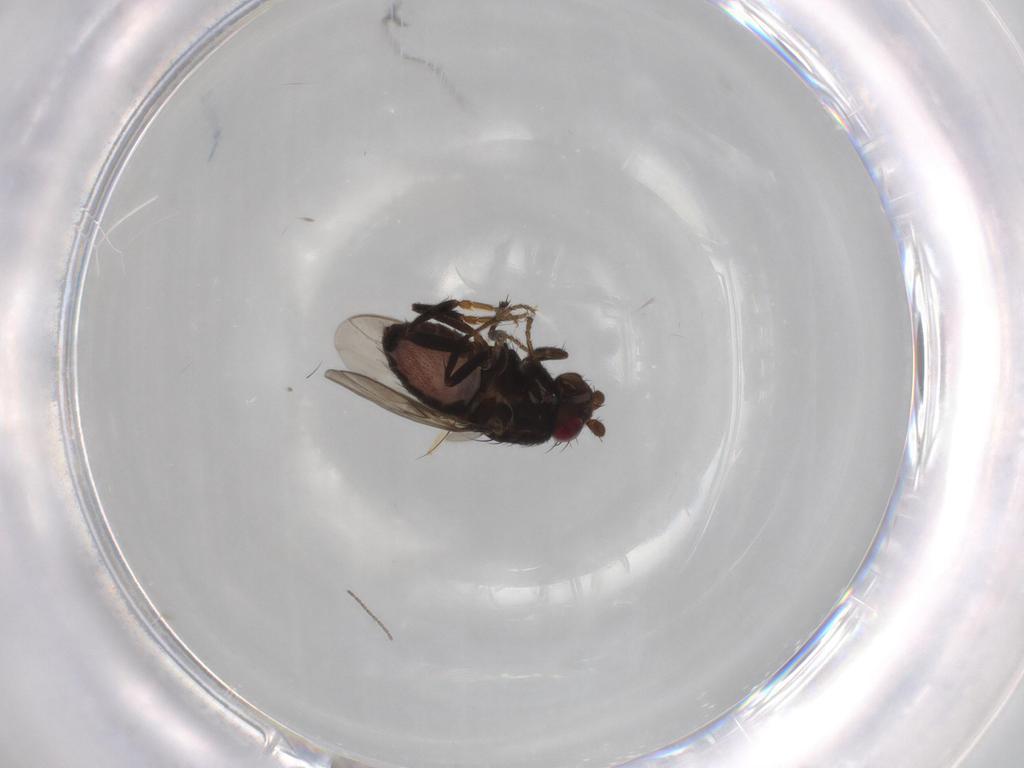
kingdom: Animalia
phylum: Arthropoda
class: Insecta
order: Diptera
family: Sphaeroceridae
